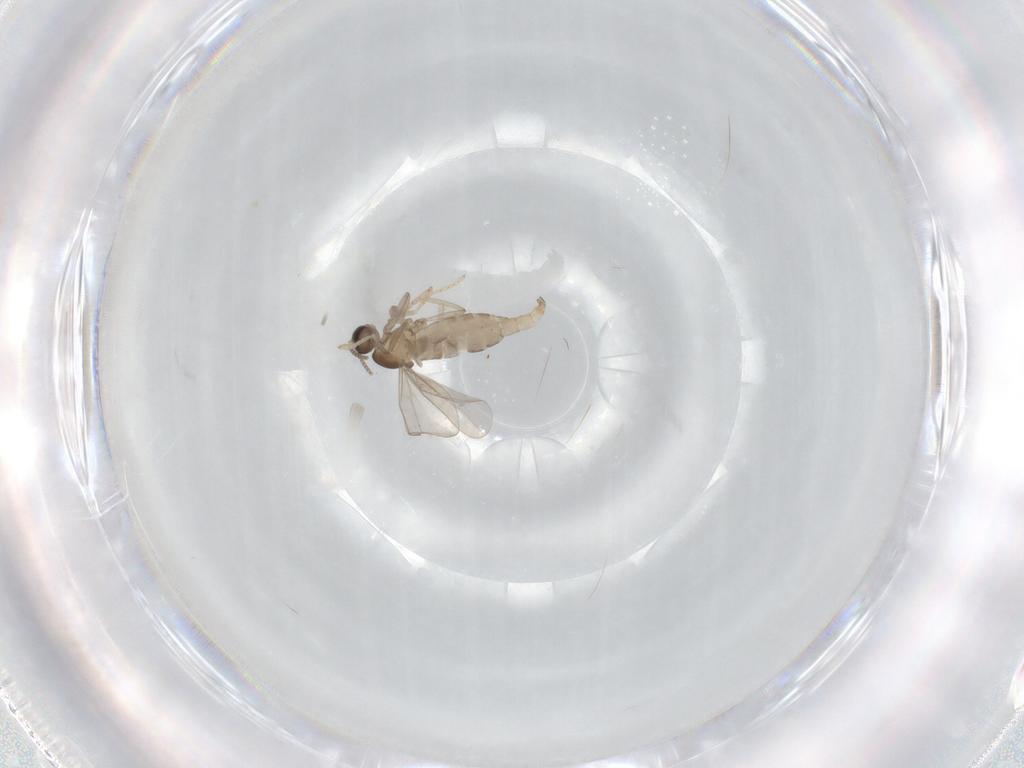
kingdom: Animalia
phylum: Arthropoda
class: Insecta
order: Diptera
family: Cecidomyiidae
